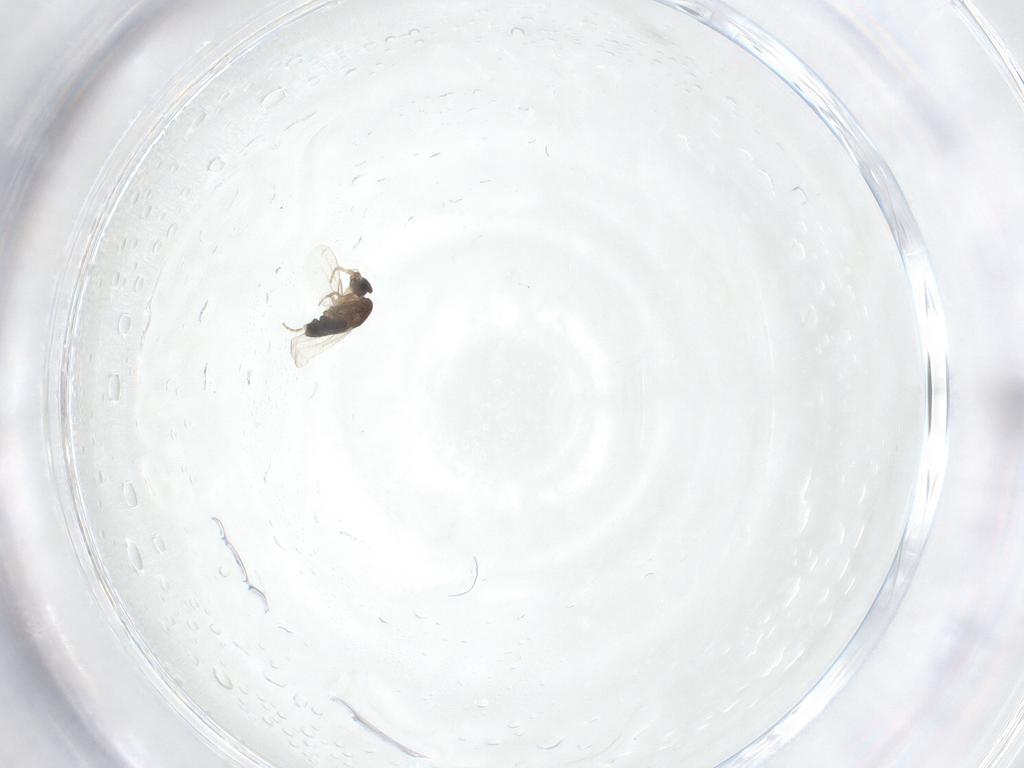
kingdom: Animalia
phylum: Arthropoda
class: Insecta
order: Diptera
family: Phoridae
